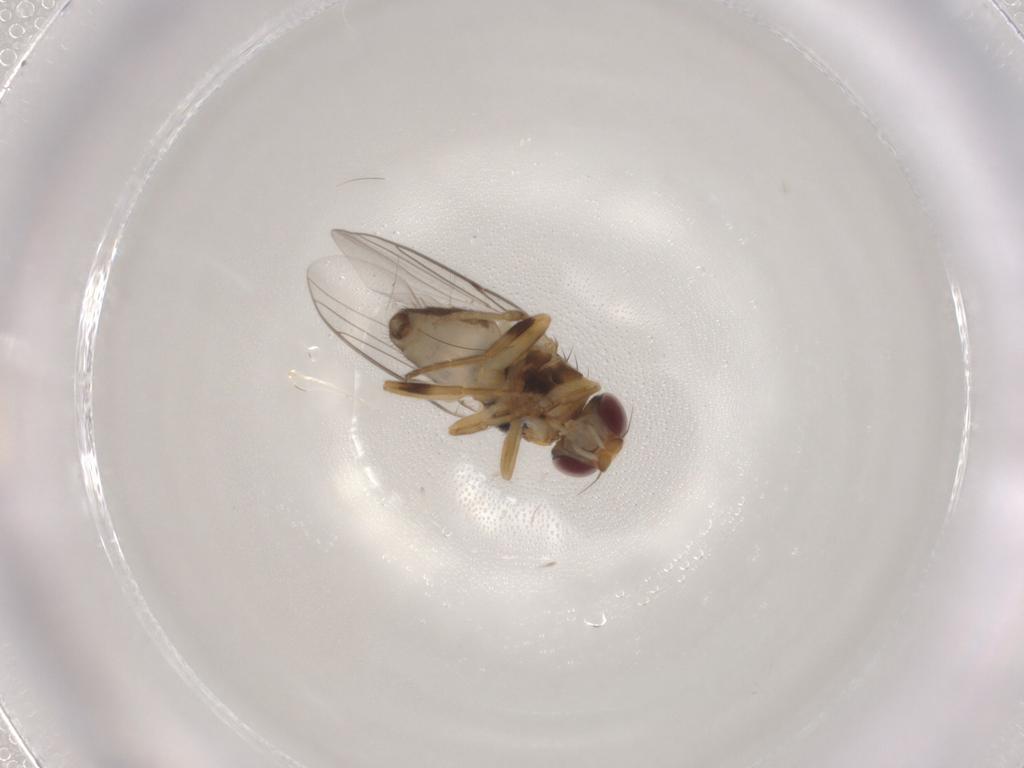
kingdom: Animalia
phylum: Arthropoda
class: Insecta
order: Diptera
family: Chloropidae
